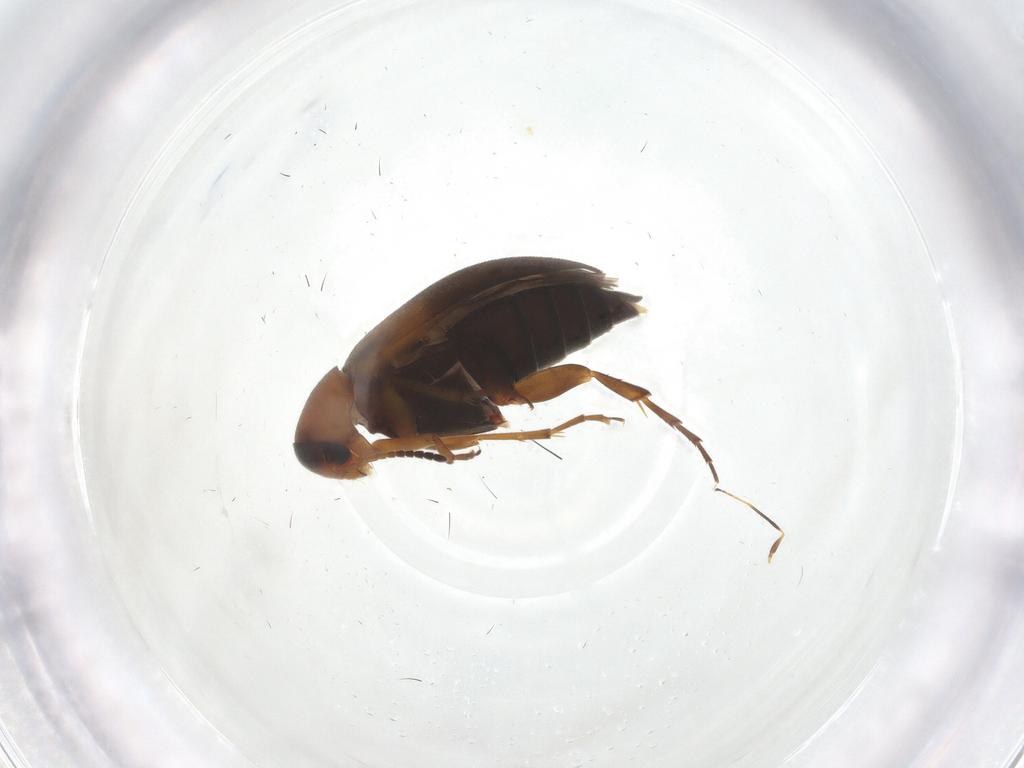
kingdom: Animalia
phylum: Arthropoda
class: Insecta
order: Coleoptera
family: Scraptiidae
